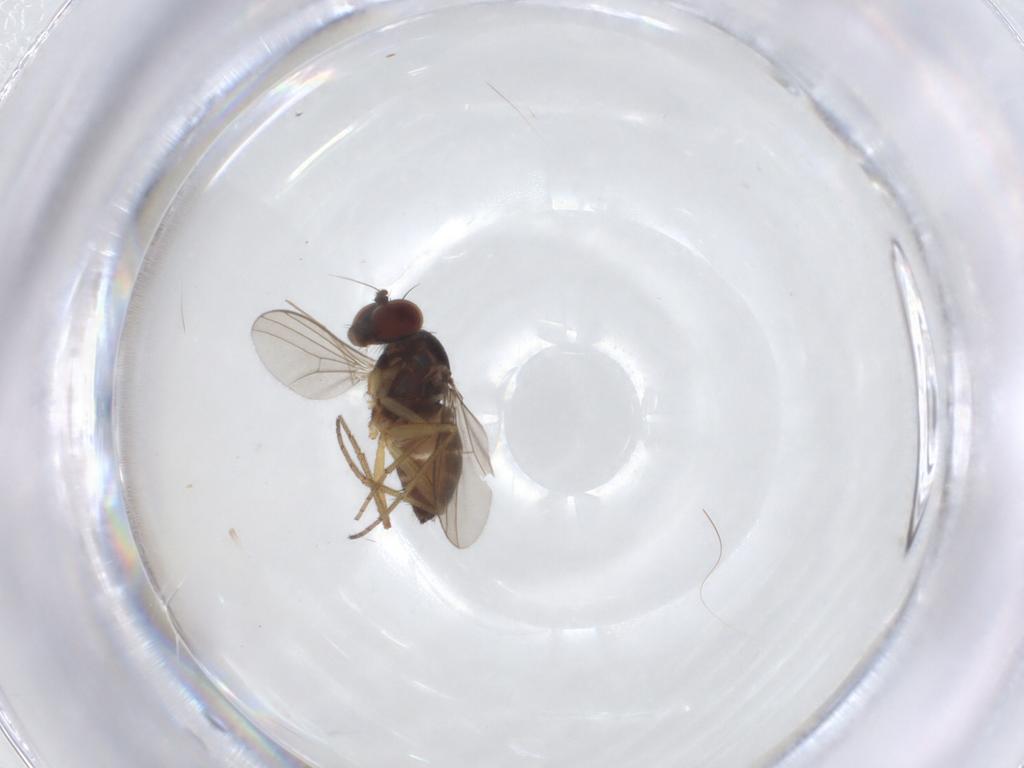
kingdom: Animalia
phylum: Arthropoda
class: Insecta
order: Diptera
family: Dolichopodidae
